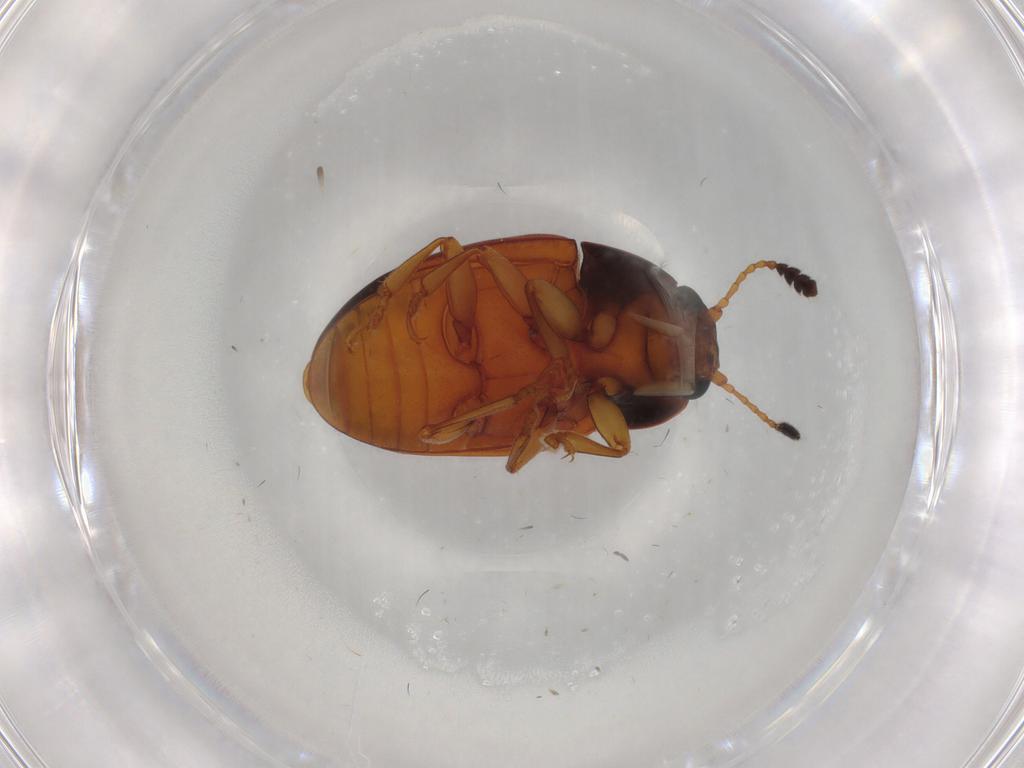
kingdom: Animalia
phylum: Arthropoda
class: Insecta
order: Coleoptera
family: Erotylidae
